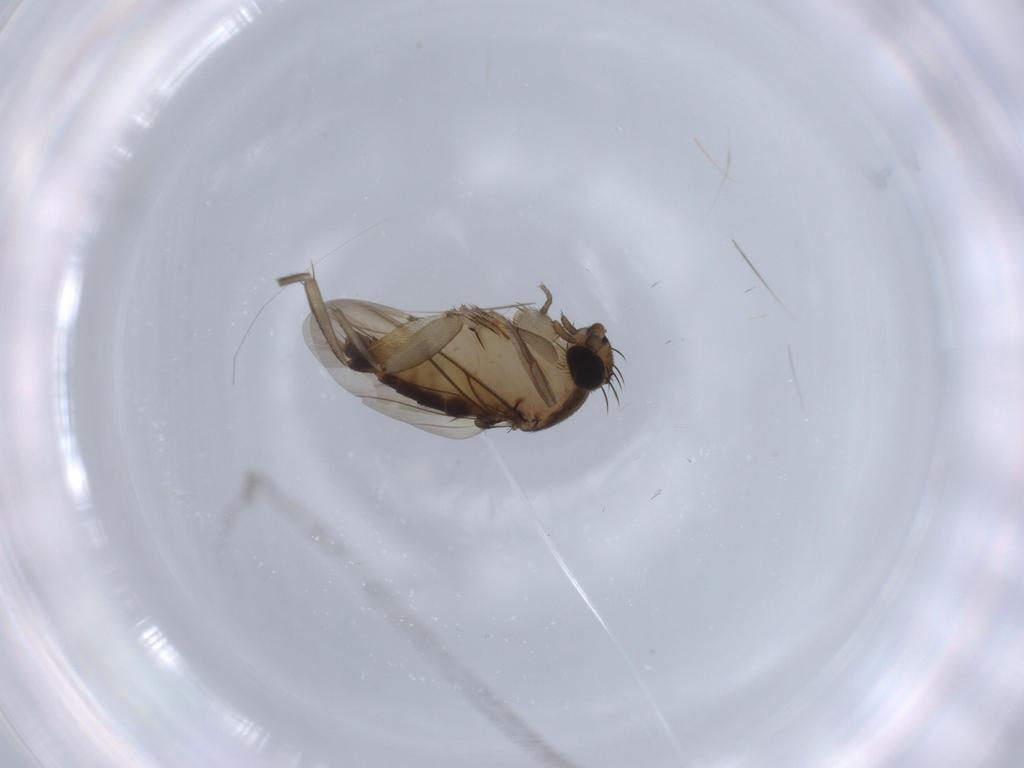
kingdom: Animalia
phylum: Arthropoda
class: Insecta
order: Diptera
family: Phoridae
